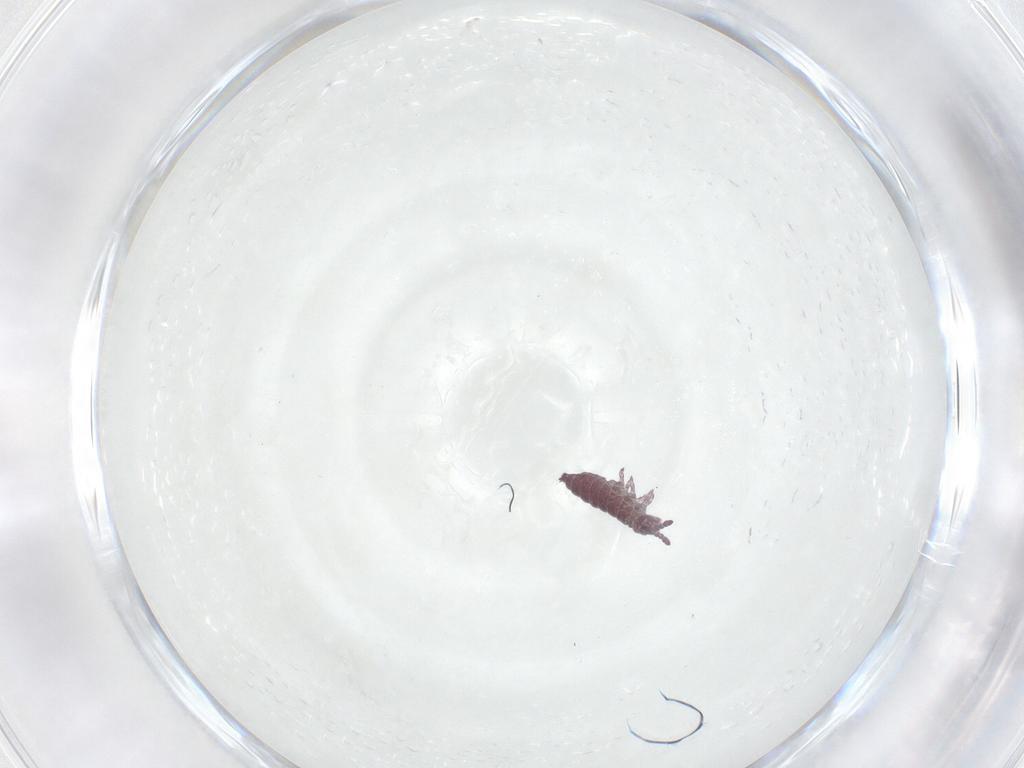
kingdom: Animalia
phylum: Arthropoda
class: Collembola
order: Poduromorpha
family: Hypogastruridae
